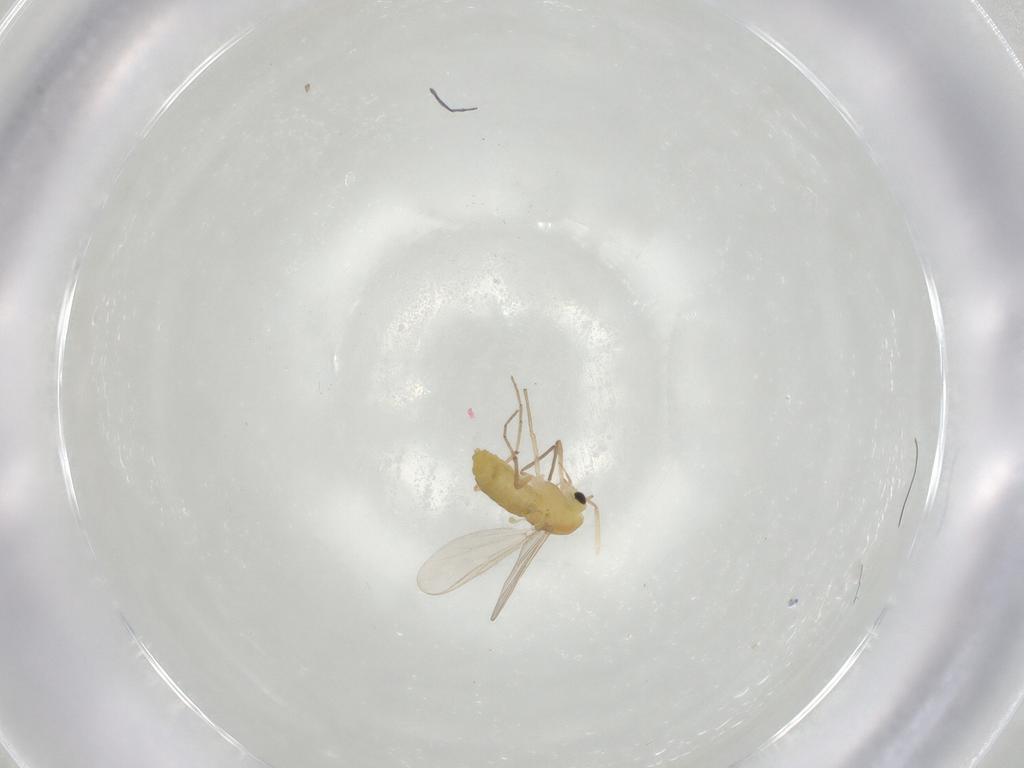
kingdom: Animalia
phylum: Arthropoda
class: Insecta
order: Diptera
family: Chironomidae
